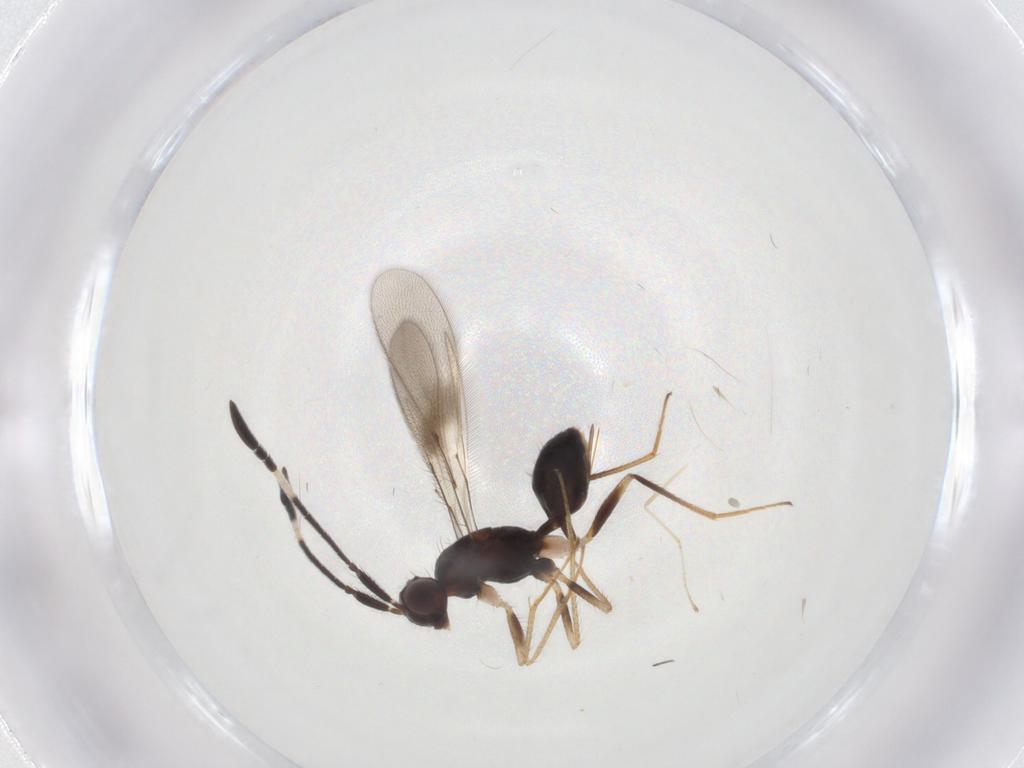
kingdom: Animalia
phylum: Arthropoda
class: Insecta
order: Hymenoptera
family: Mymaridae
